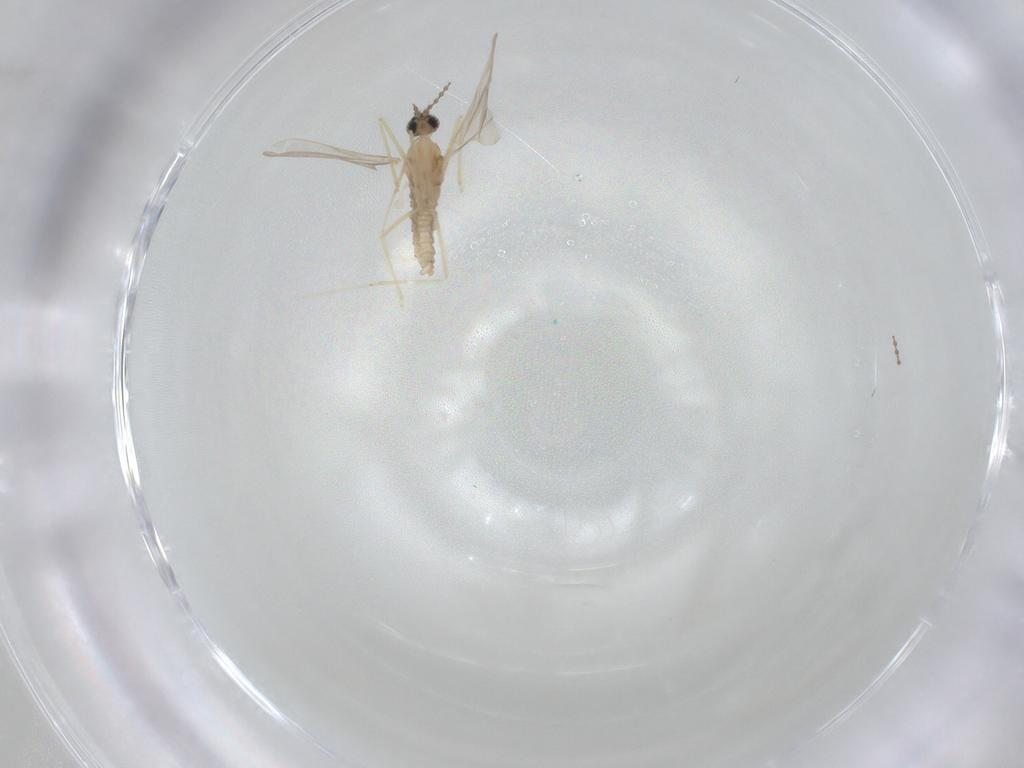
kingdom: Animalia
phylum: Arthropoda
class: Insecta
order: Diptera
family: Cecidomyiidae
